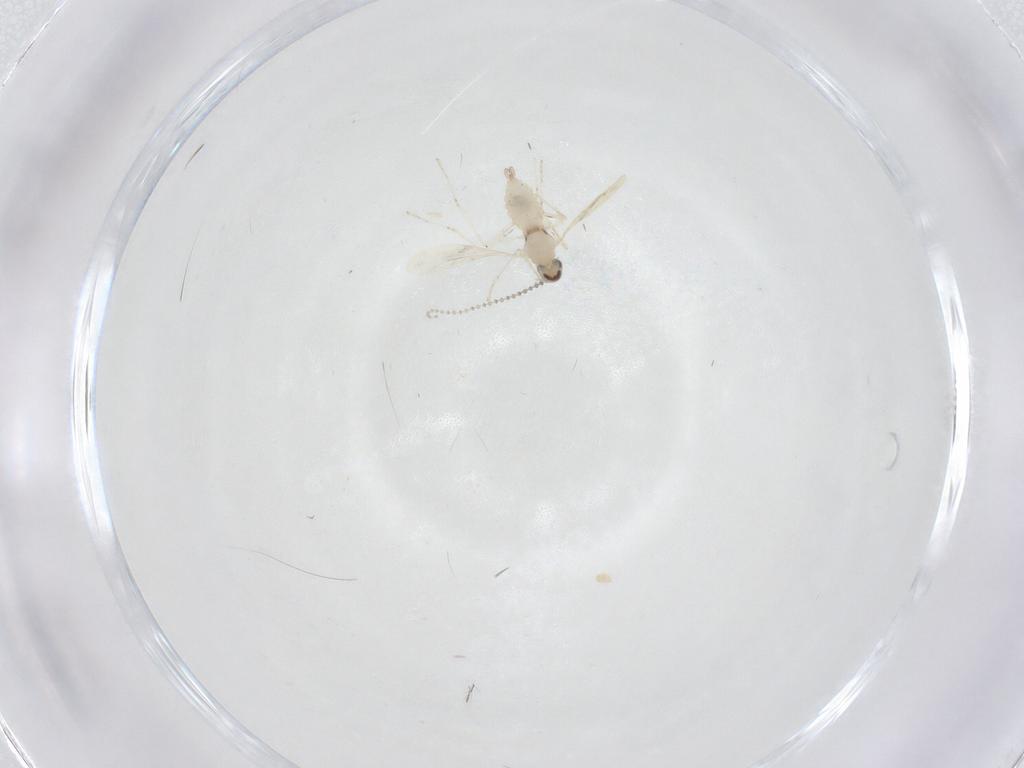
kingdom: Animalia
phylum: Arthropoda
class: Insecta
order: Diptera
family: Cecidomyiidae
